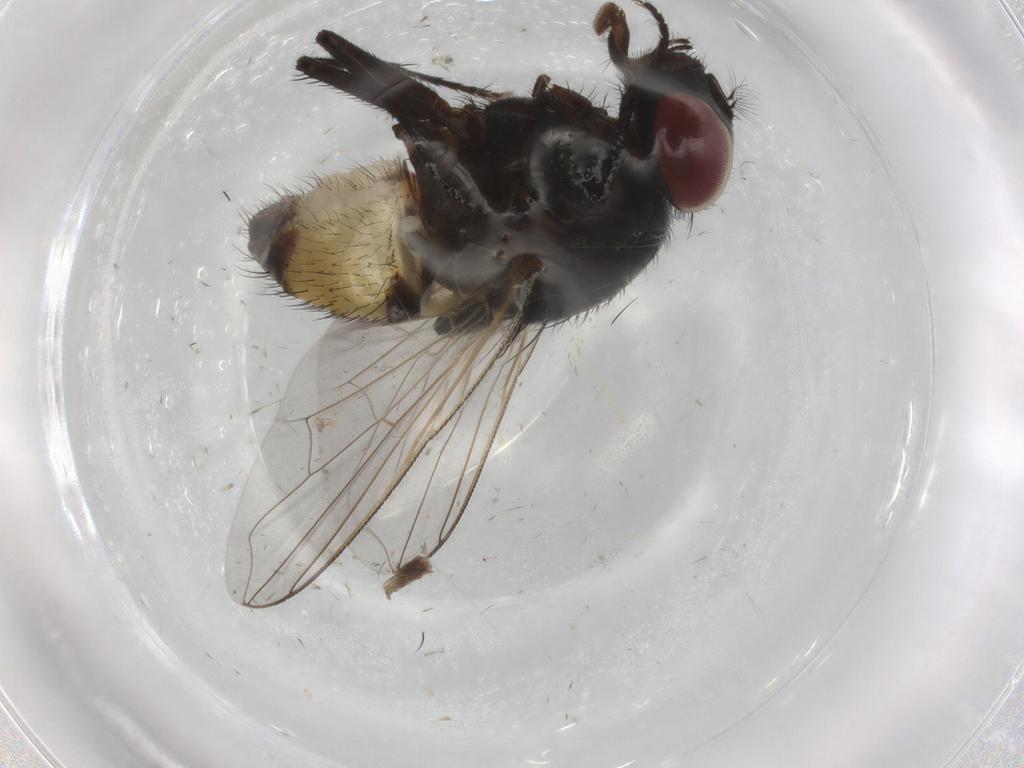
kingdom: Animalia
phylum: Arthropoda
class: Insecta
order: Diptera
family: Muscidae
